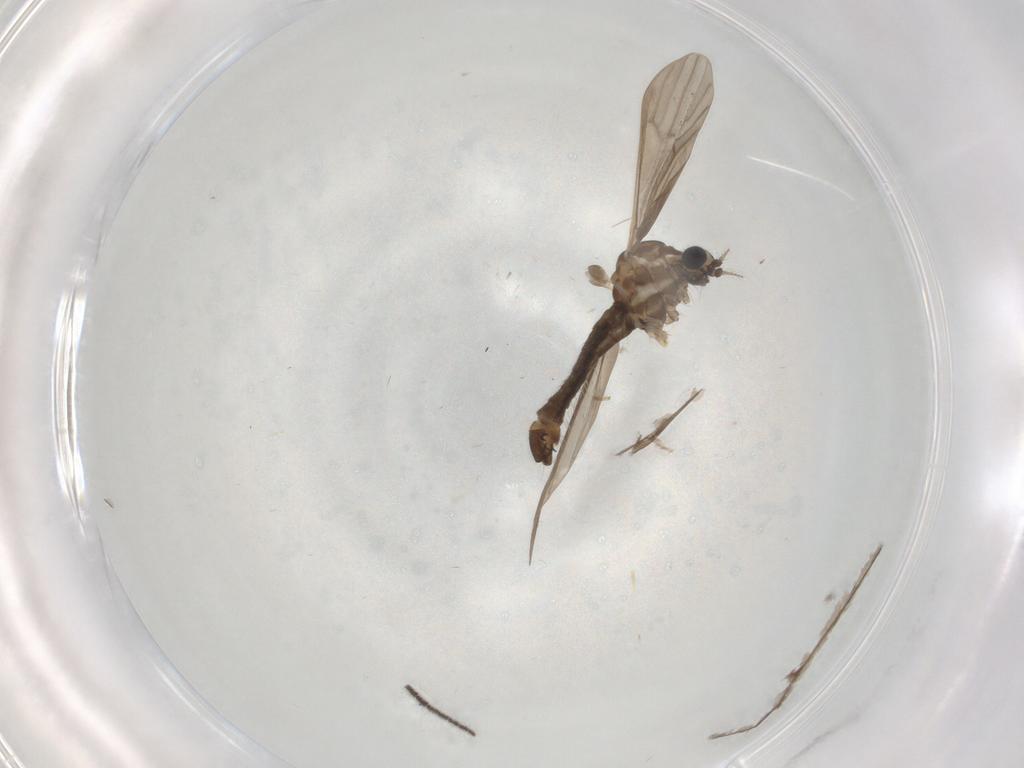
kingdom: Animalia
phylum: Arthropoda
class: Insecta
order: Diptera
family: Limoniidae
